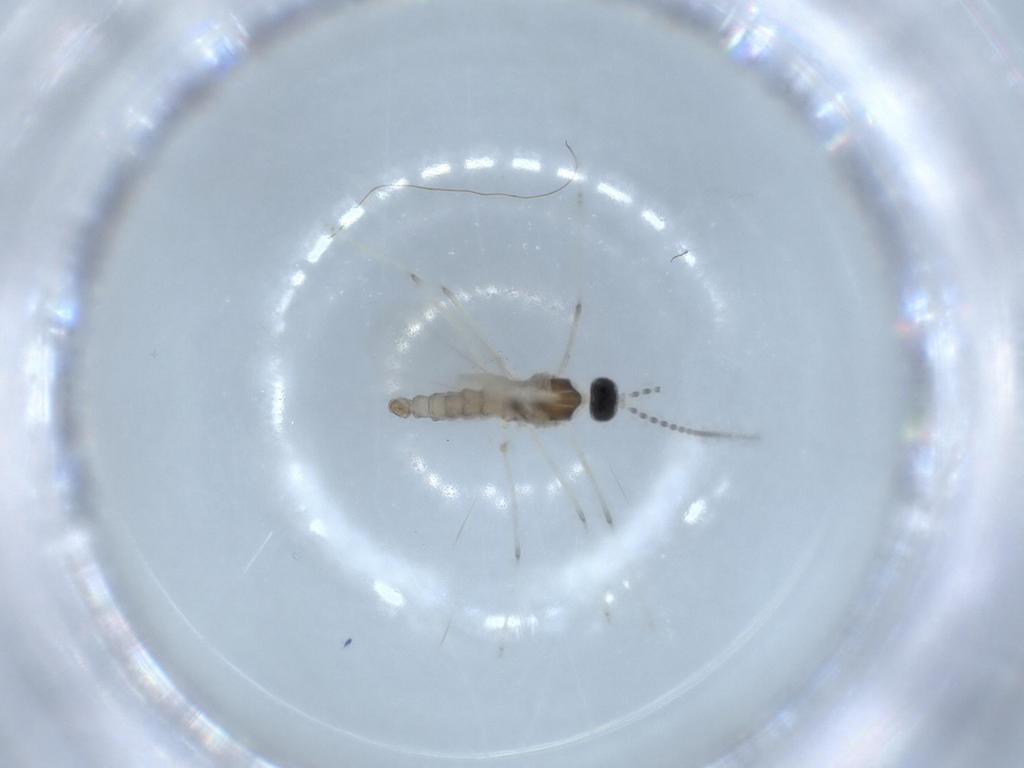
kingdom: Animalia
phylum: Arthropoda
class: Insecta
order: Diptera
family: Cecidomyiidae
